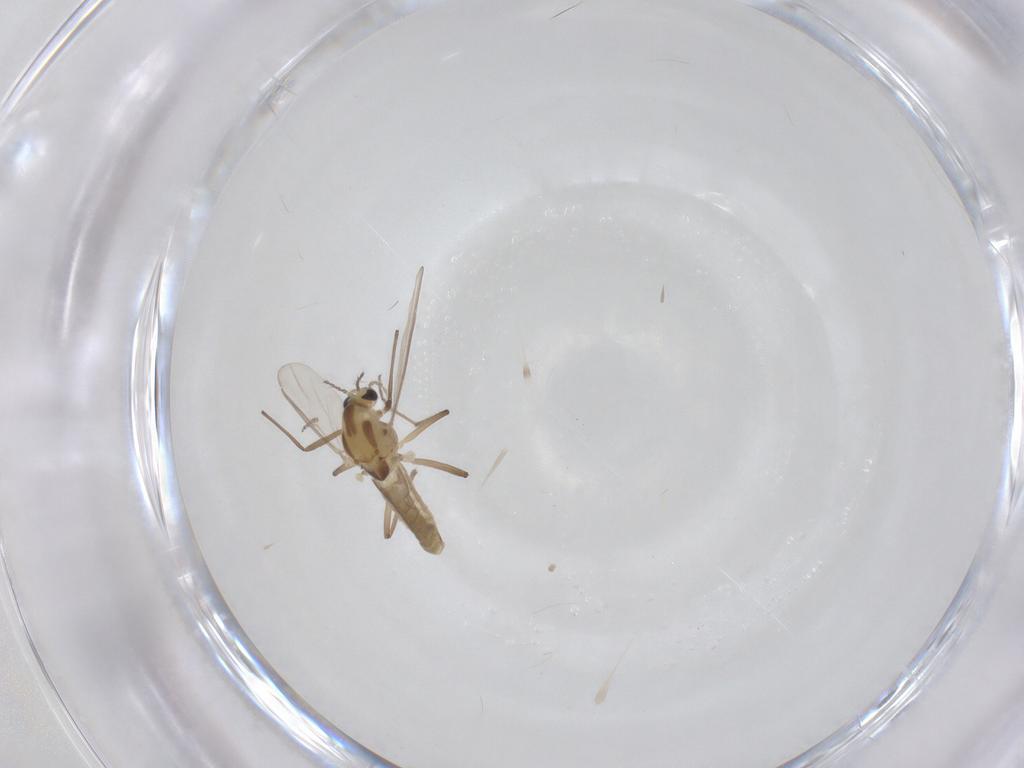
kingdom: Animalia
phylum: Arthropoda
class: Insecta
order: Diptera
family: Chironomidae
